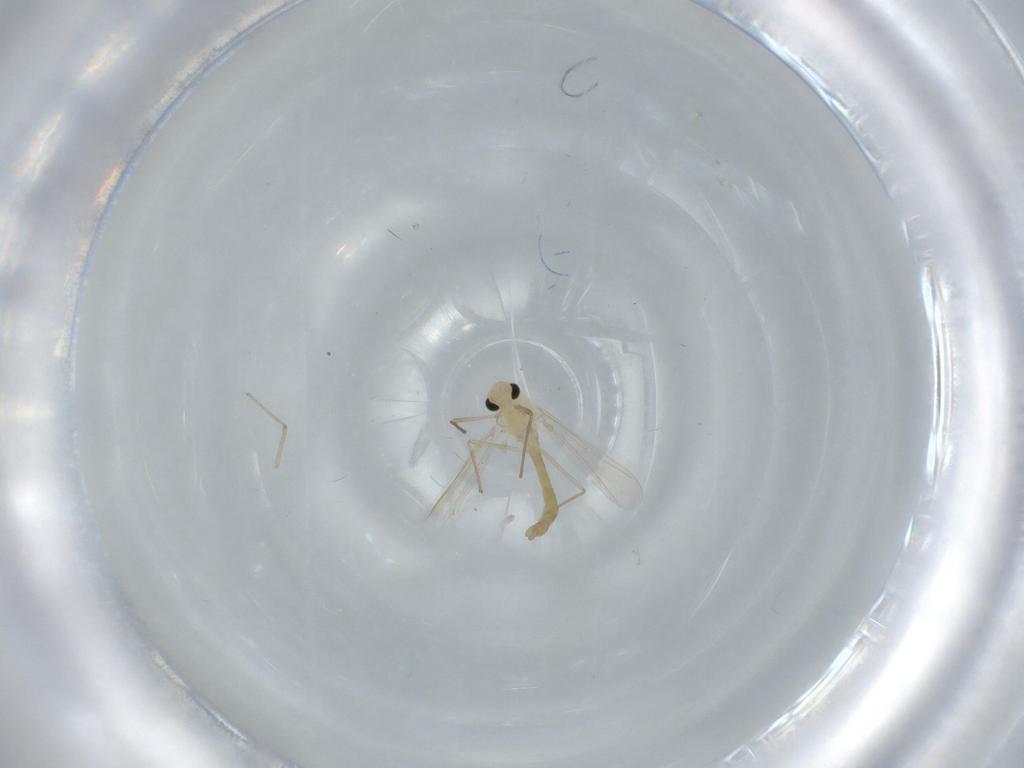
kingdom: Animalia
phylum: Arthropoda
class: Insecta
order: Diptera
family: Chironomidae
